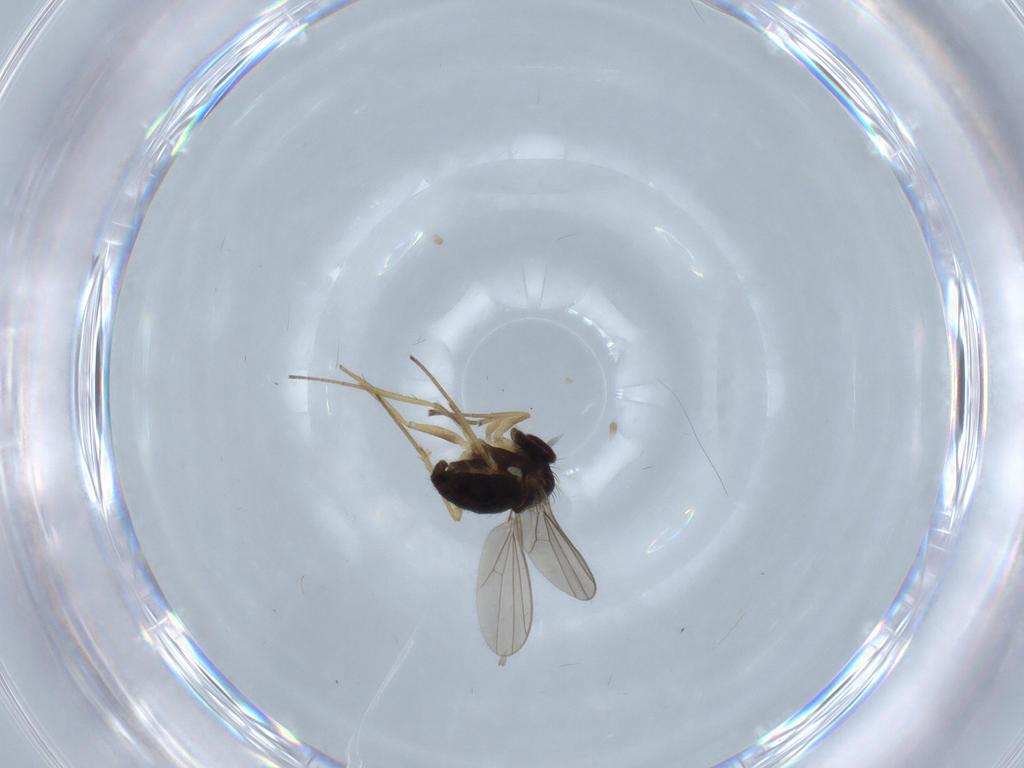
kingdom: Animalia
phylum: Arthropoda
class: Insecta
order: Diptera
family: Dolichopodidae
